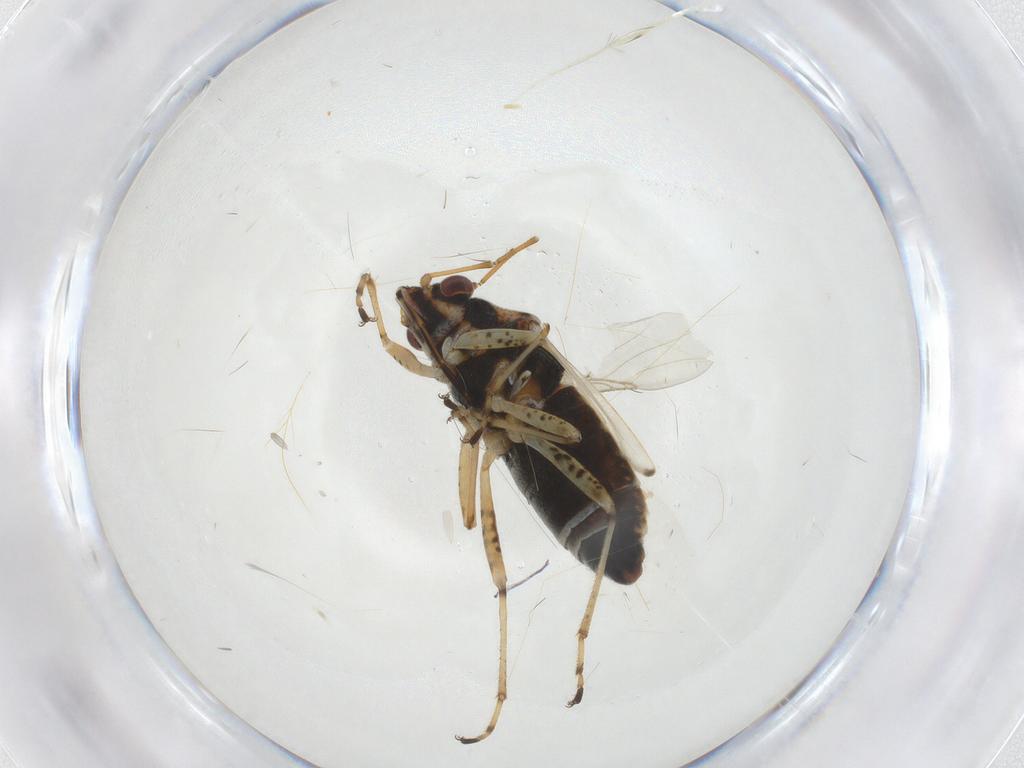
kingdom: Animalia
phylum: Arthropoda
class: Insecta
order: Hemiptera
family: Lygaeidae
